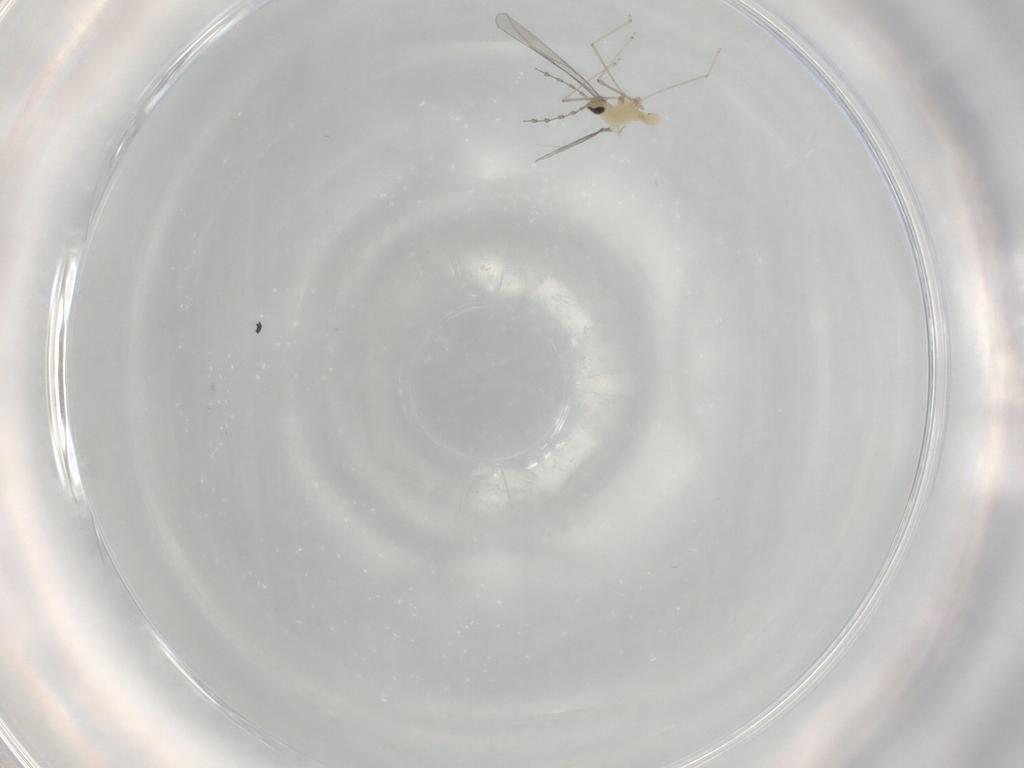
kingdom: Animalia
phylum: Arthropoda
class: Insecta
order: Diptera
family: Cecidomyiidae
